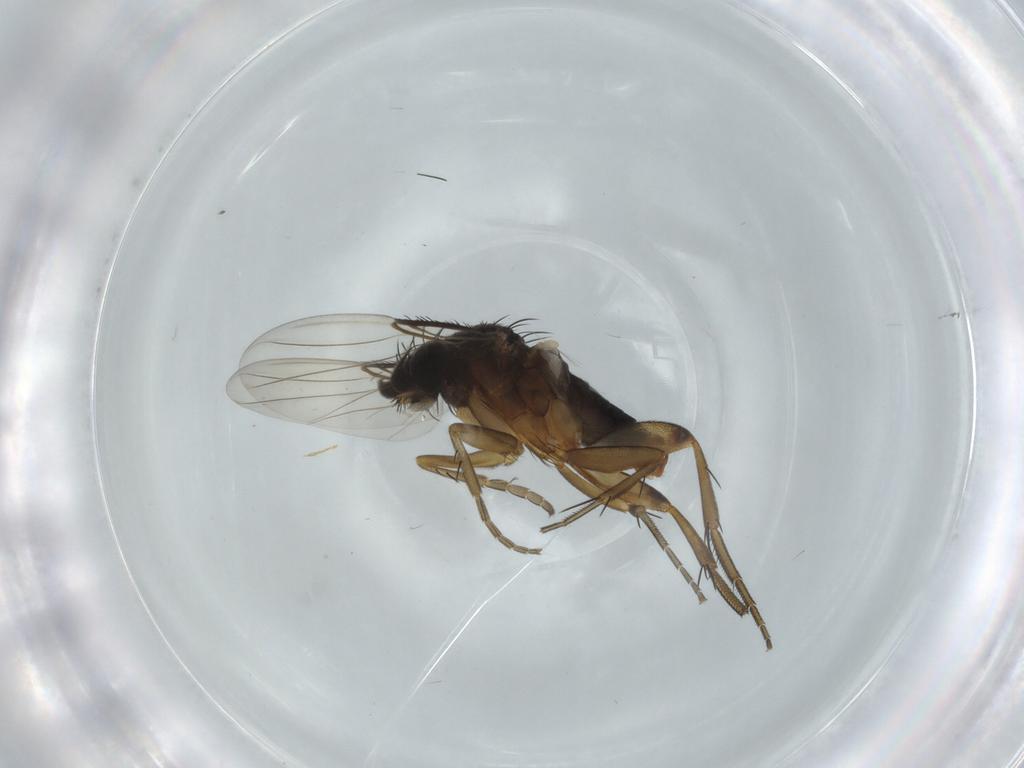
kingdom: Animalia
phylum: Arthropoda
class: Insecta
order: Diptera
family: Phoridae
